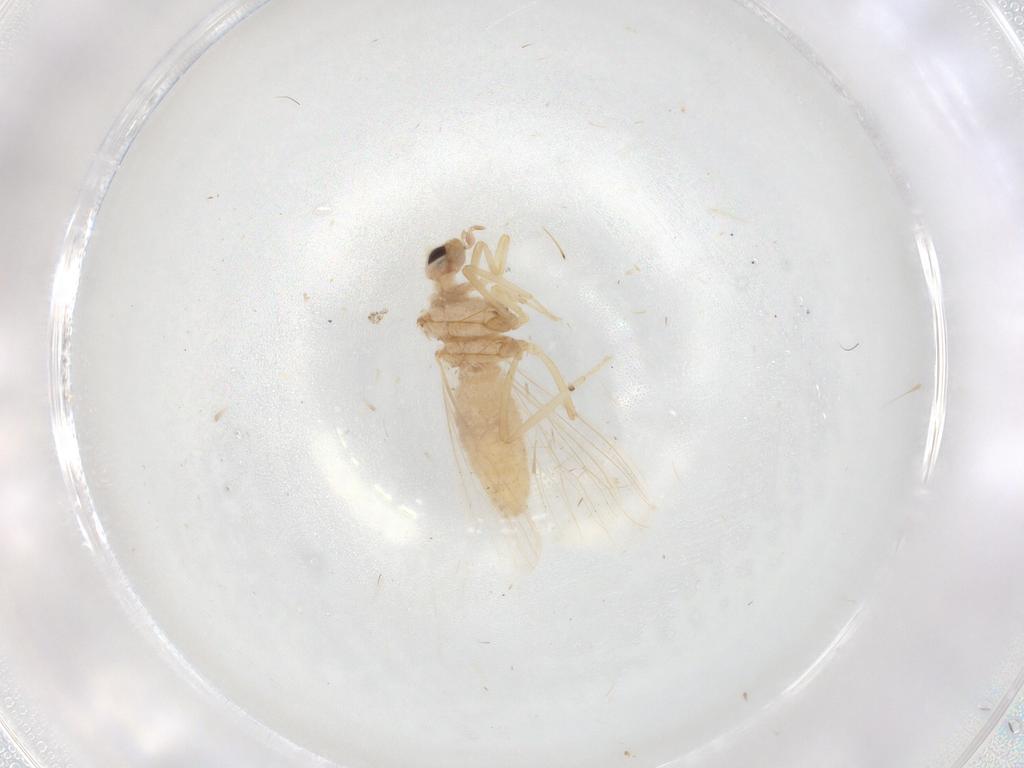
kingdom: Animalia
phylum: Arthropoda
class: Insecta
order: Neuroptera
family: Berothidae
